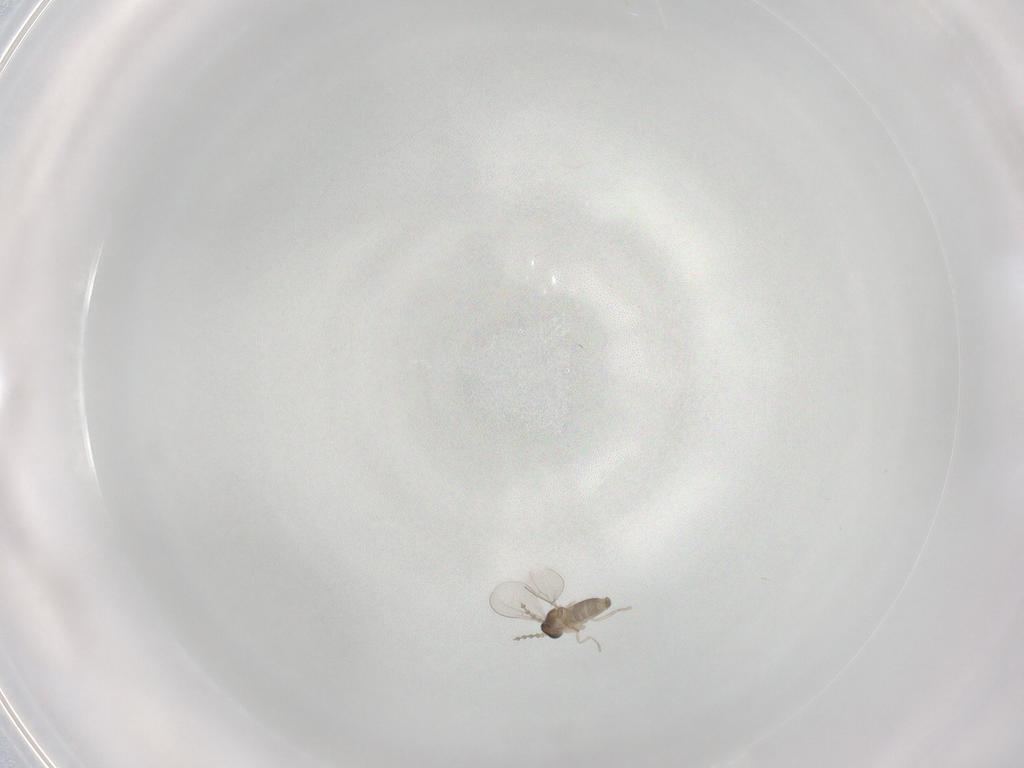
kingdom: Animalia
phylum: Arthropoda
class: Insecta
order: Diptera
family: Cecidomyiidae
